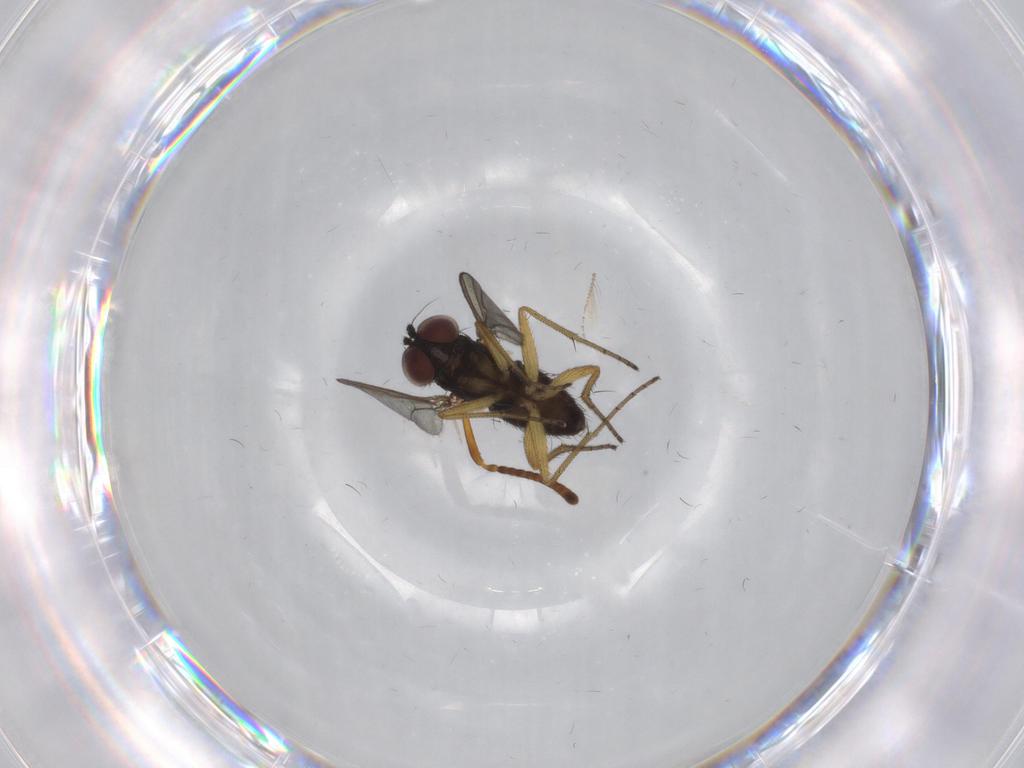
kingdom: Animalia
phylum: Arthropoda
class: Insecta
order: Diptera
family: Dolichopodidae
